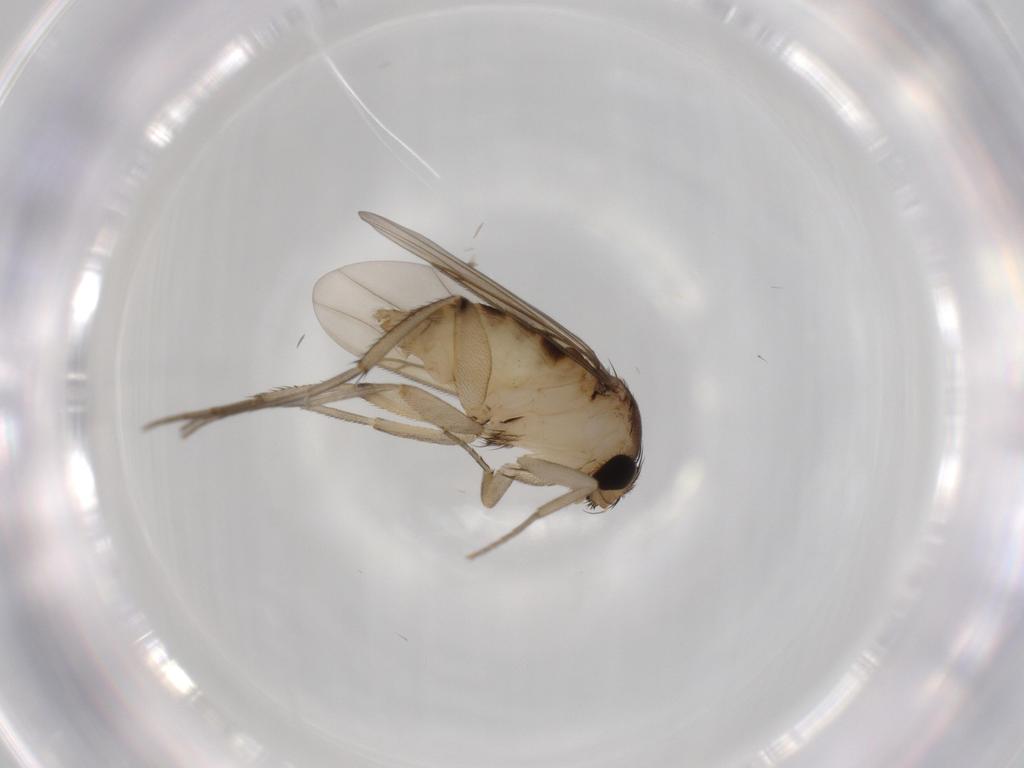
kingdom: Animalia
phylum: Arthropoda
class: Insecta
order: Diptera
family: Phoridae
